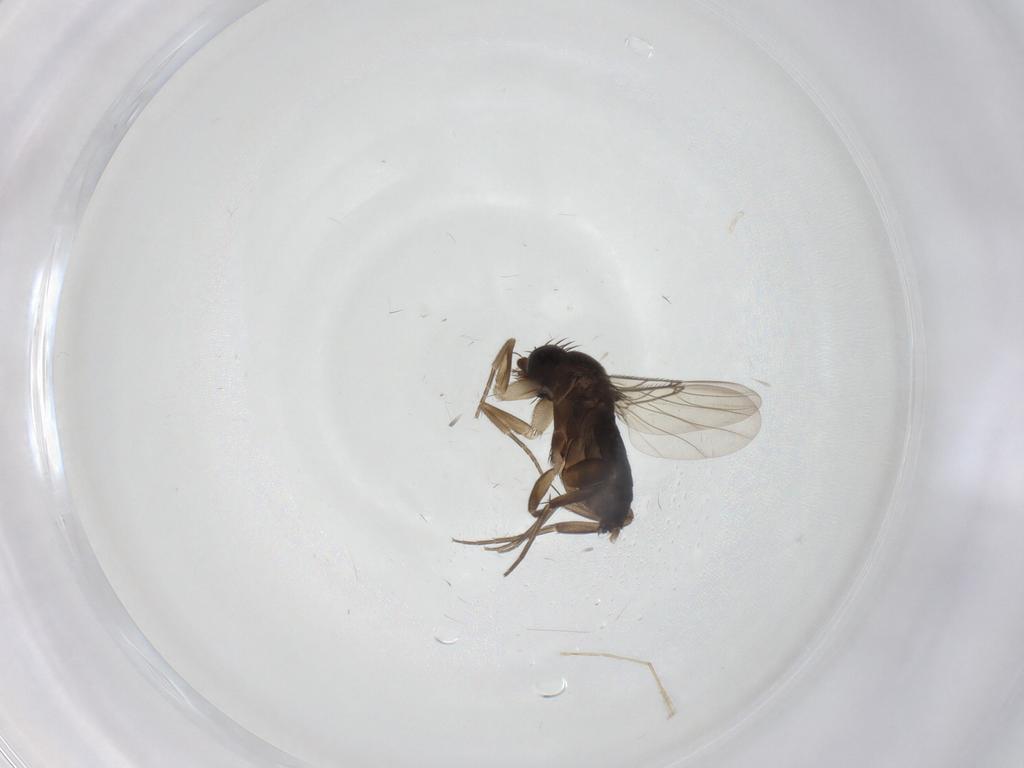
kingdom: Animalia
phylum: Arthropoda
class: Insecta
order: Diptera
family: Phoridae
